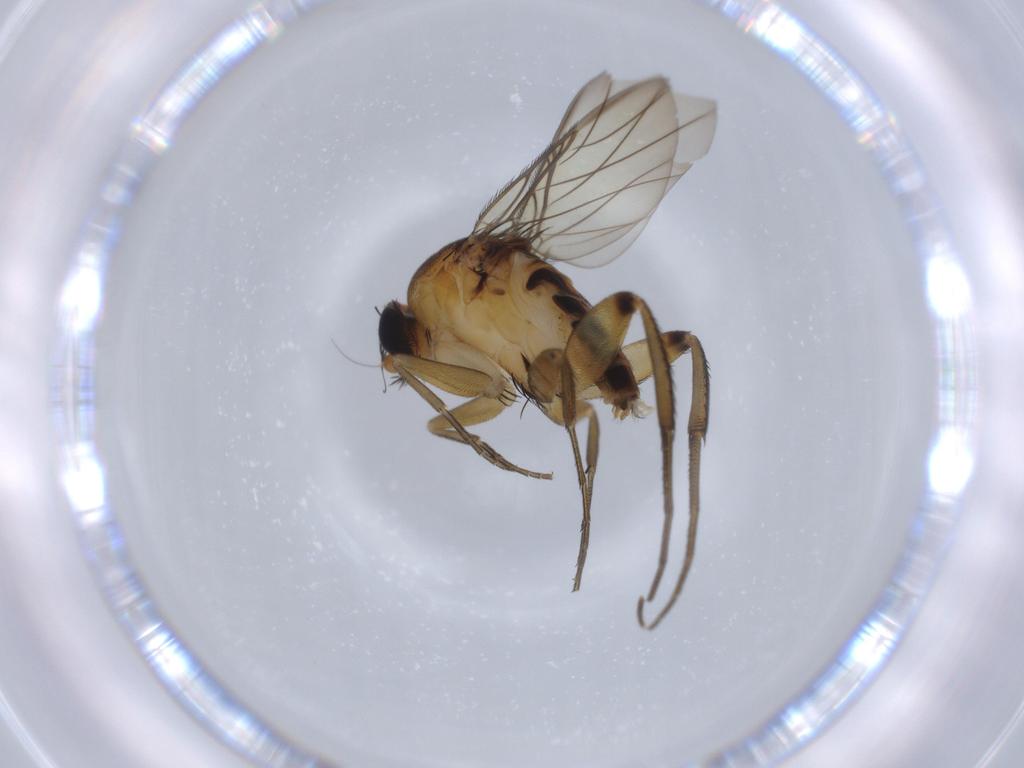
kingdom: Animalia
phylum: Arthropoda
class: Insecta
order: Diptera
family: Phoridae
